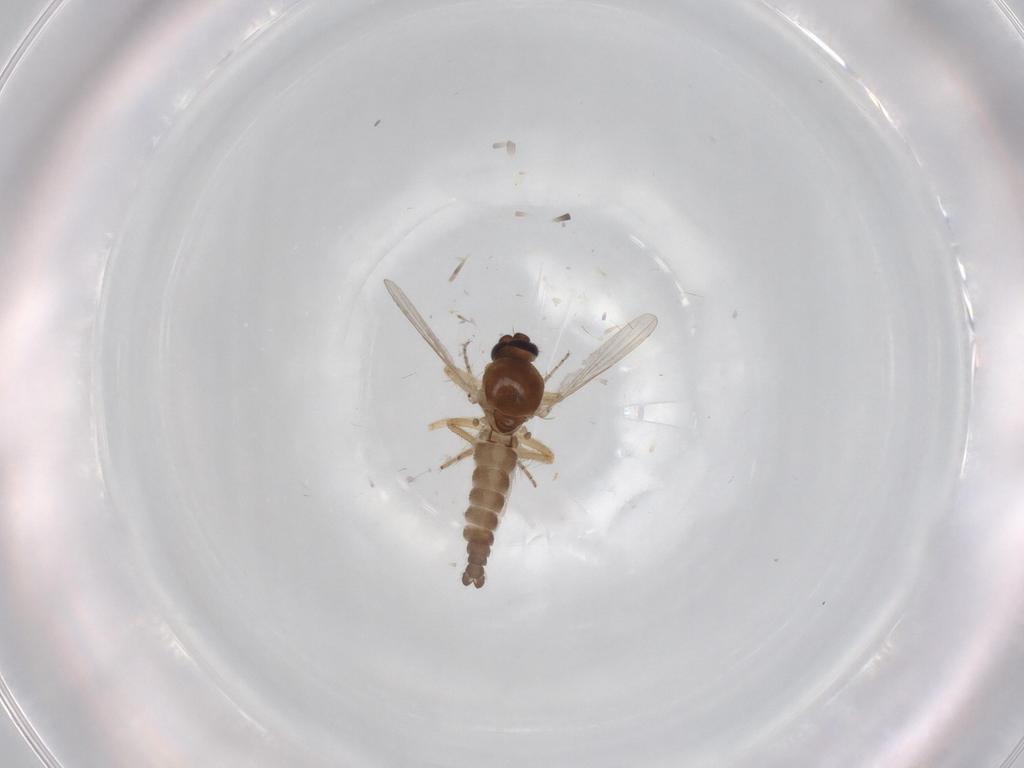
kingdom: Animalia
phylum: Arthropoda
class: Insecta
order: Diptera
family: Ceratopogonidae
